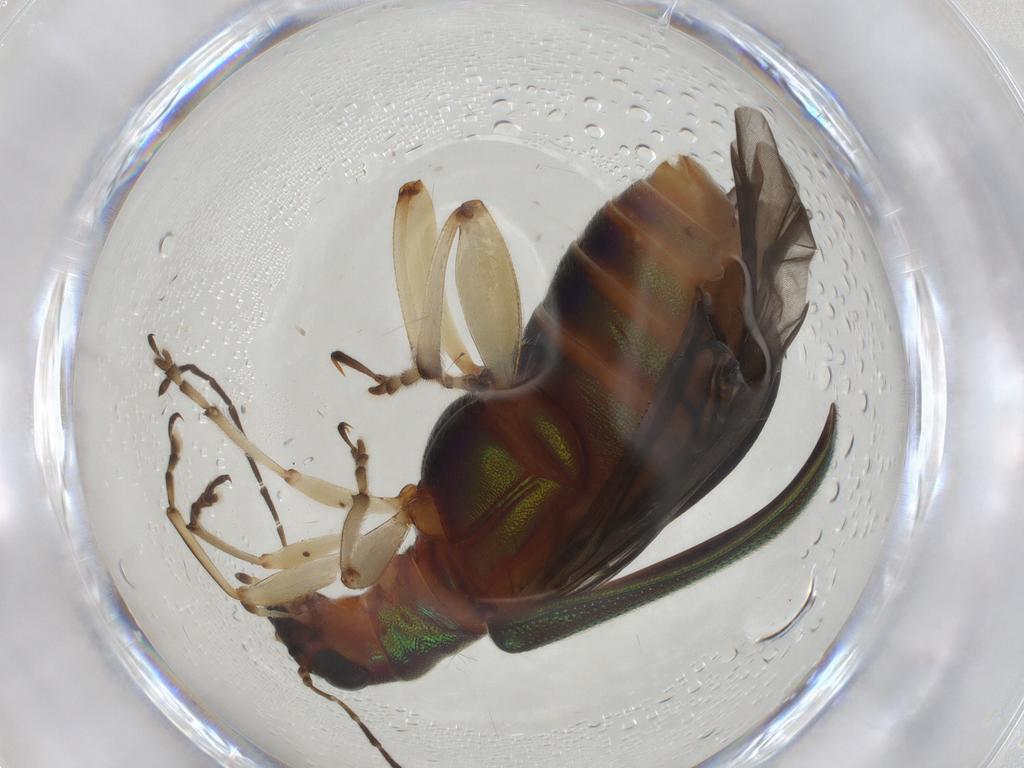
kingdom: Animalia
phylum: Arthropoda
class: Insecta
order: Coleoptera
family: Chrysomelidae
